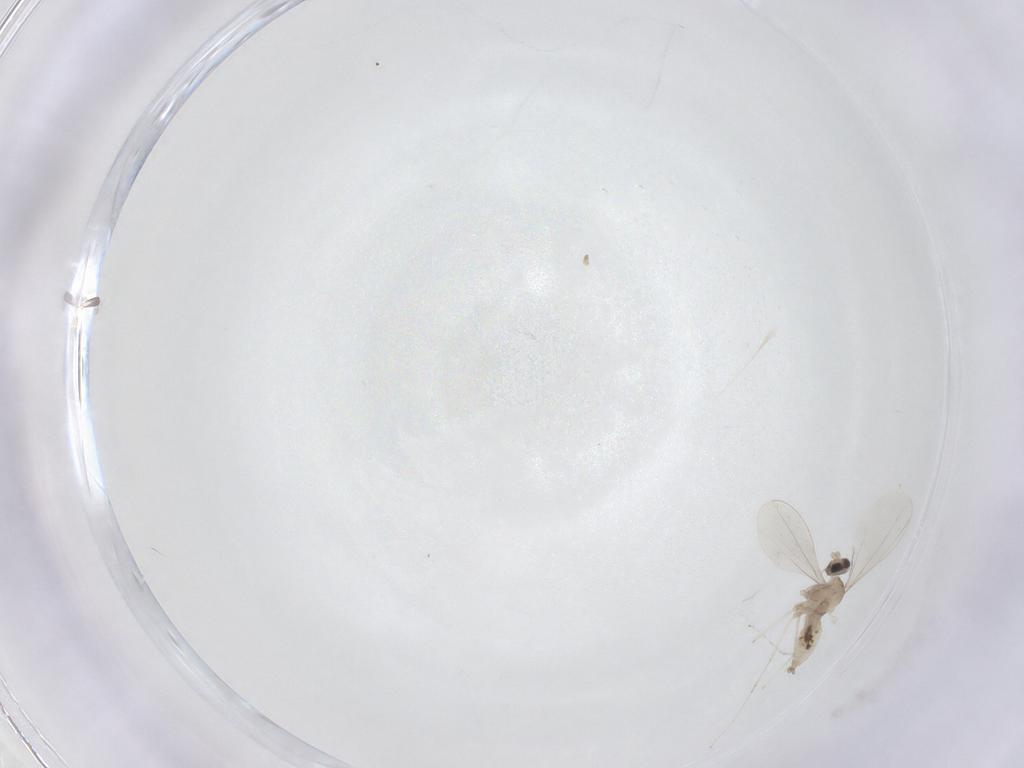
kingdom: Animalia
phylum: Arthropoda
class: Insecta
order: Diptera
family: Cecidomyiidae
